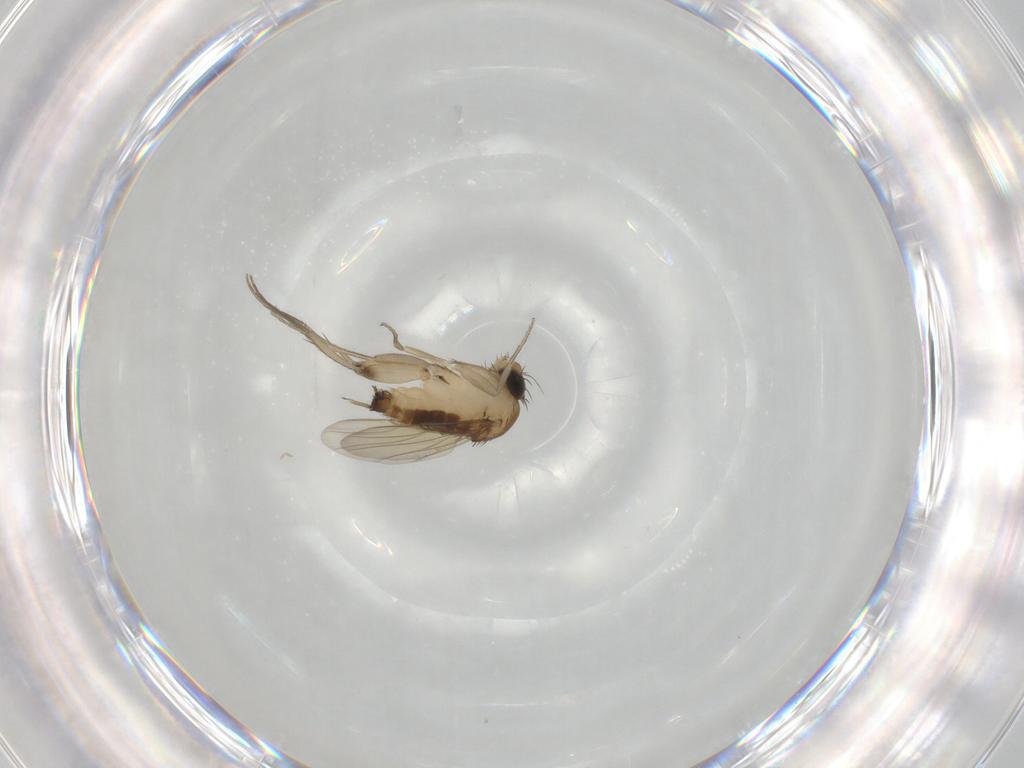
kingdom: Animalia
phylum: Arthropoda
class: Insecta
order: Diptera
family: Phoridae
